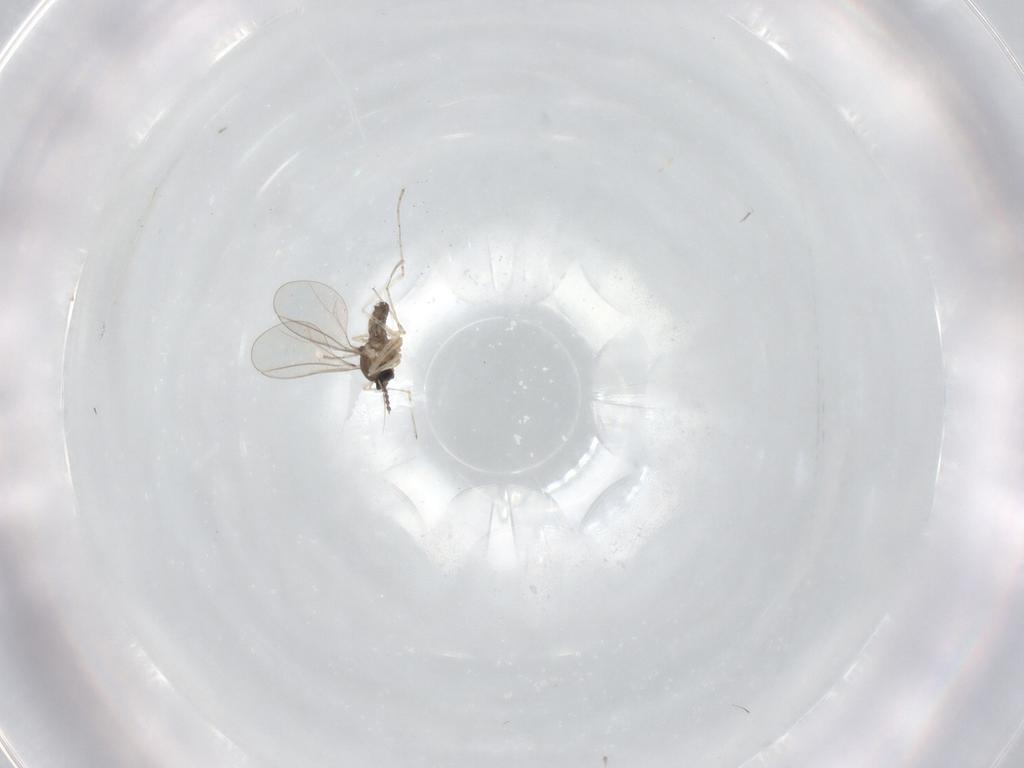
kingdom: Animalia
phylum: Arthropoda
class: Insecta
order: Diptera
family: Cecidomyiidae
